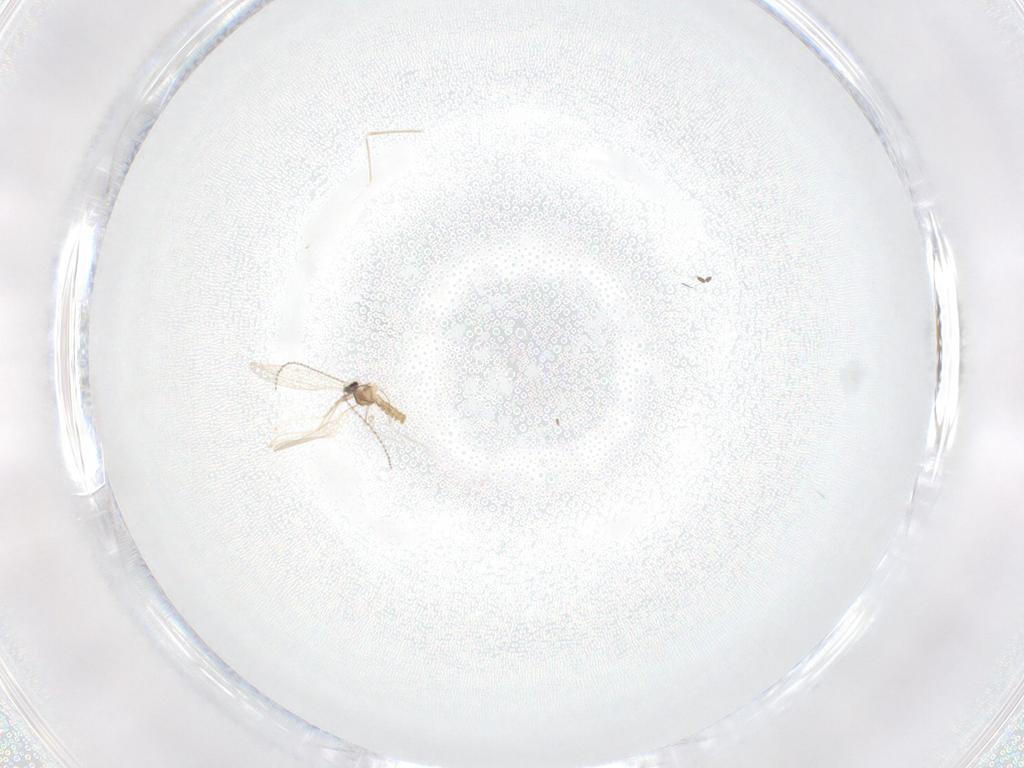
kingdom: Animalia
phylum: Arthropoda
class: Insecta
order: Diptera
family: Cecidomyiidae
